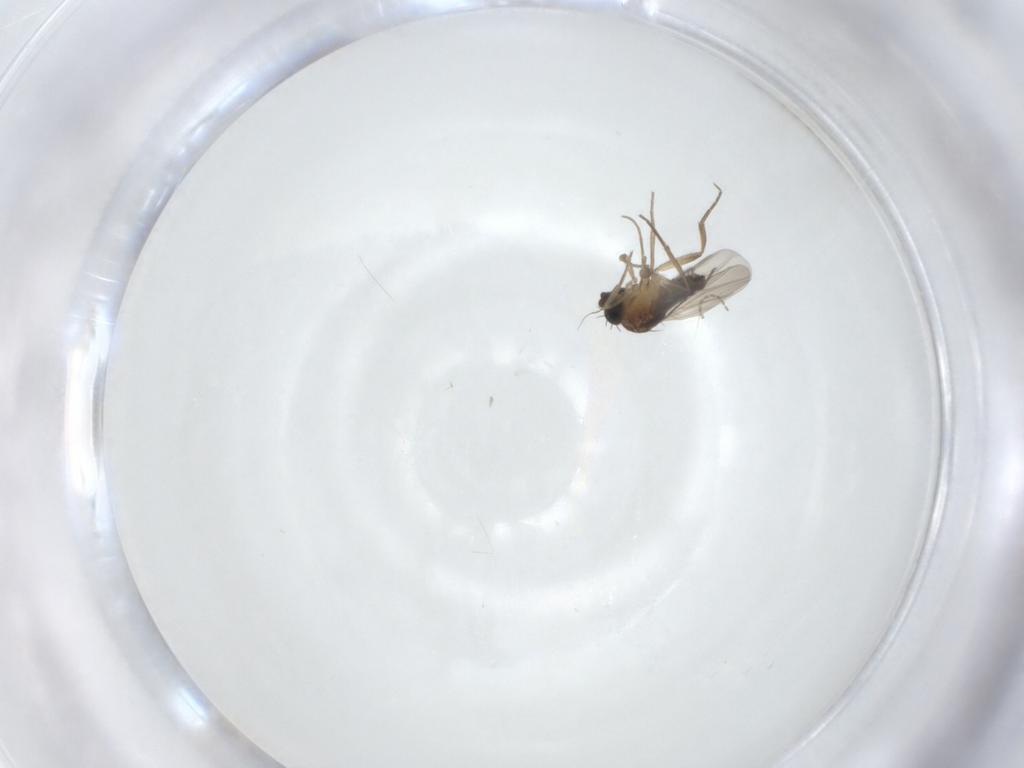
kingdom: Animalia
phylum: Arthropoda
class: Insecta
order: Diptera
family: Phoridae
